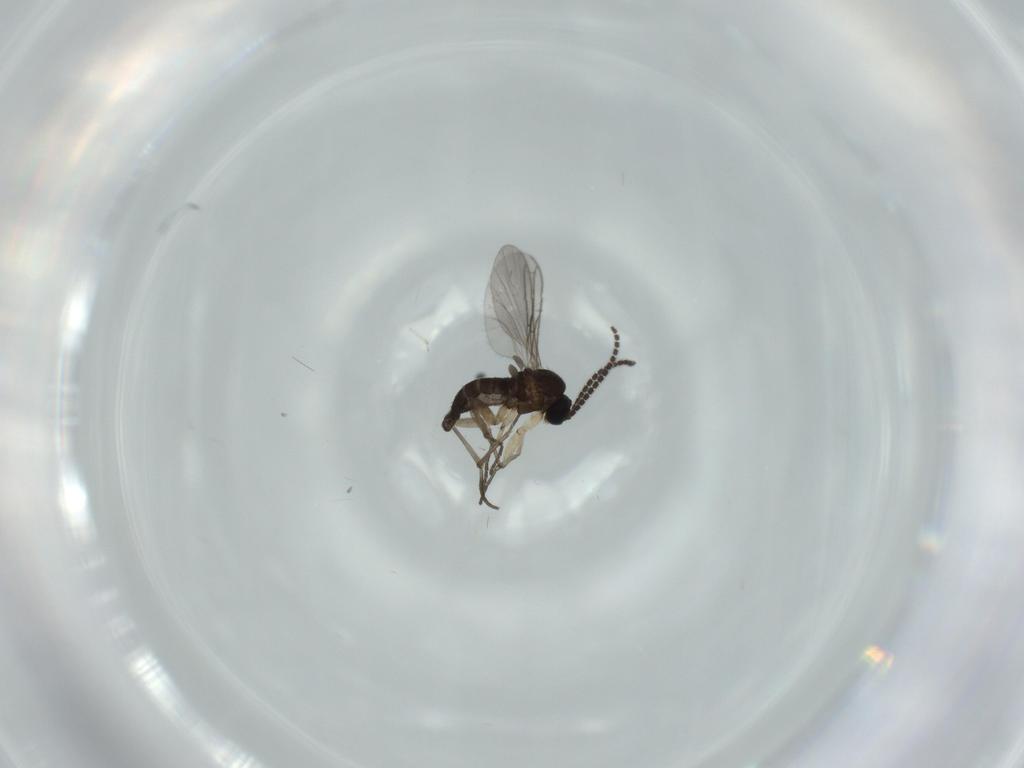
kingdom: Animalia
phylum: Arthropoda
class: Insecta
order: Diptera
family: Sciaridae
